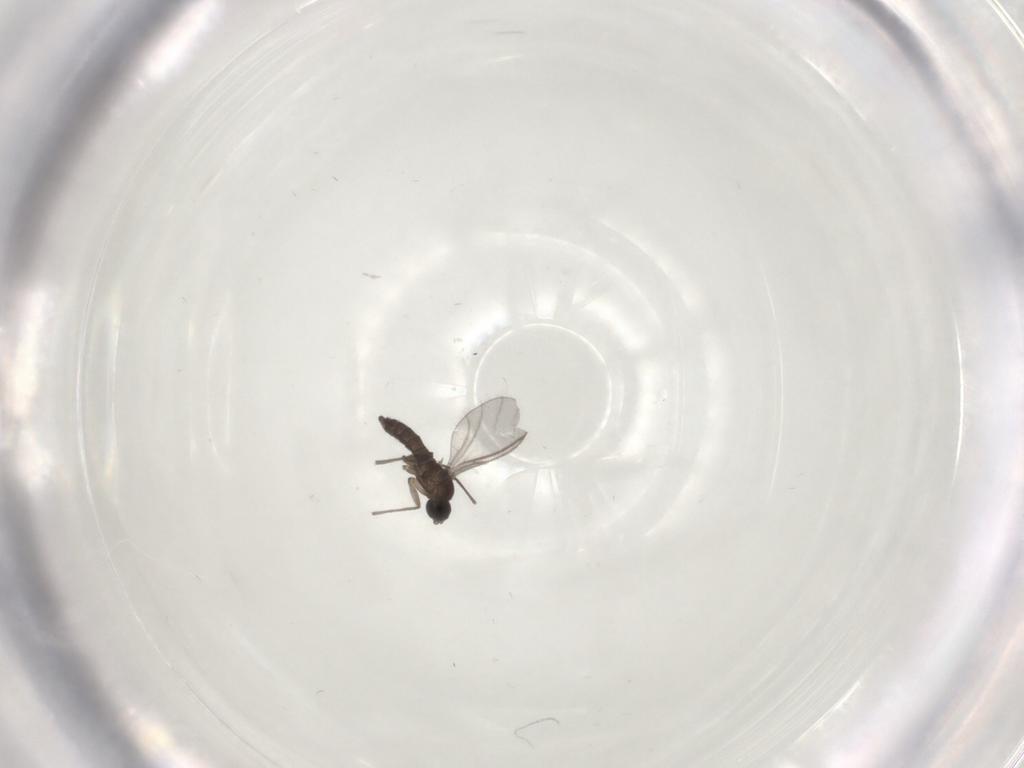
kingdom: Animalia
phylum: Arthropoda
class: Insecta
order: Diptera
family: Sciaridae
